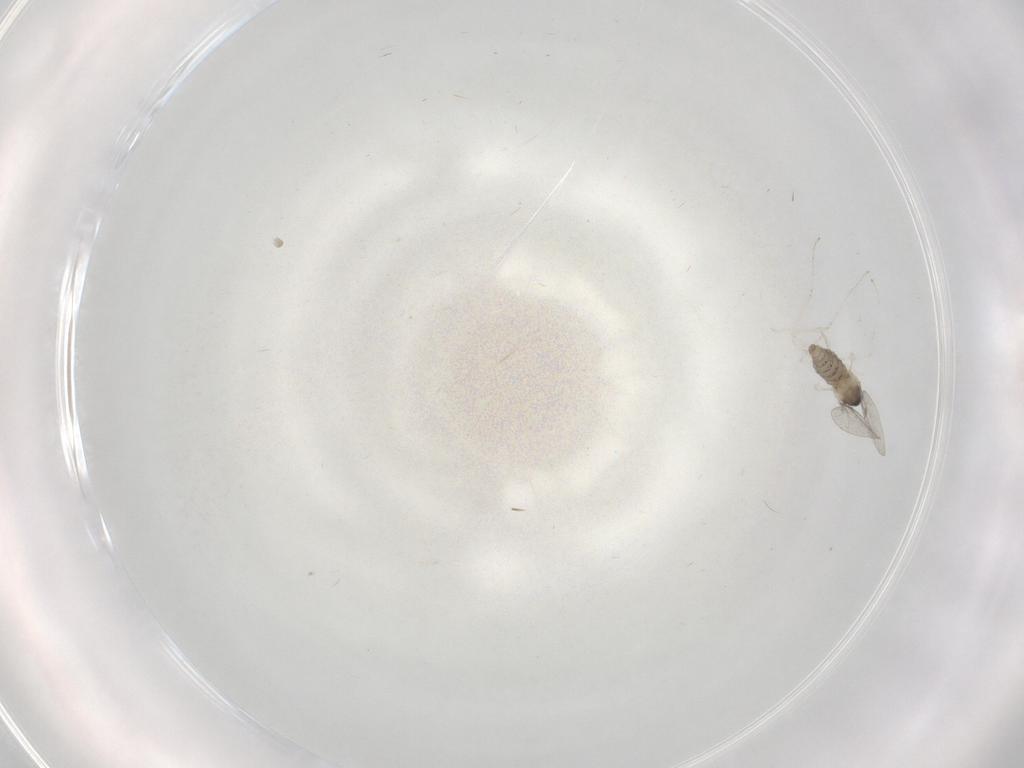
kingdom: Animalia
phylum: Arthropoda
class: Insecta
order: Diptera
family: Cecidomyiidae
